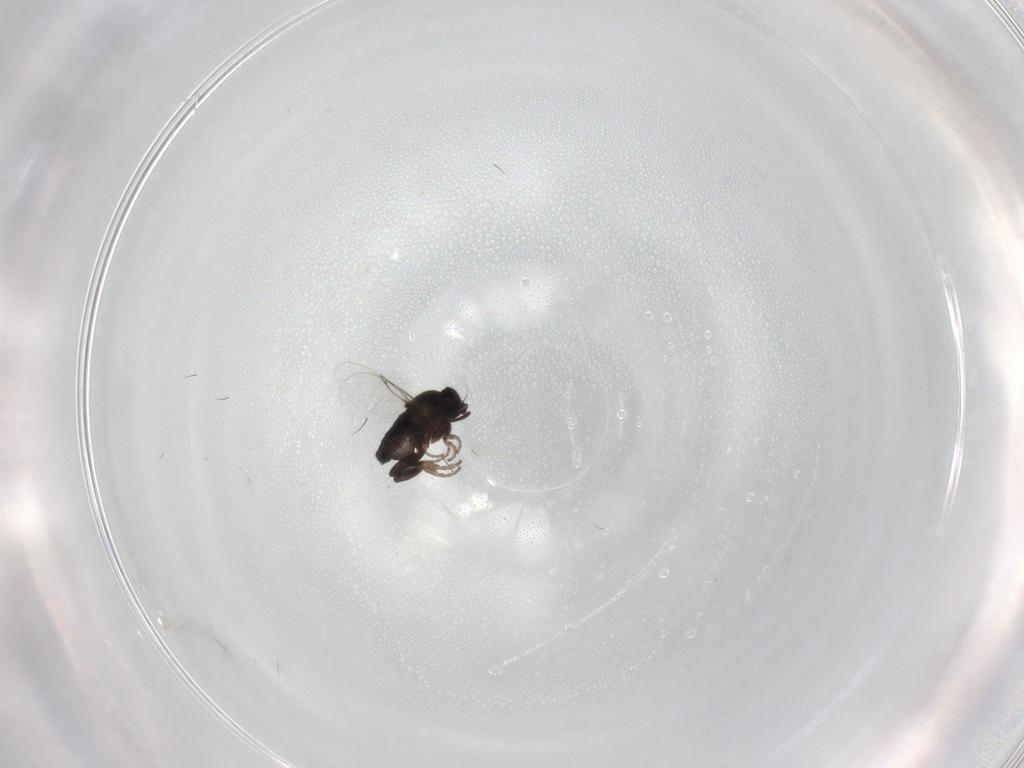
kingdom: Animalia
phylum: Arthropoda
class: Insecta
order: Diptera
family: Phoridae
